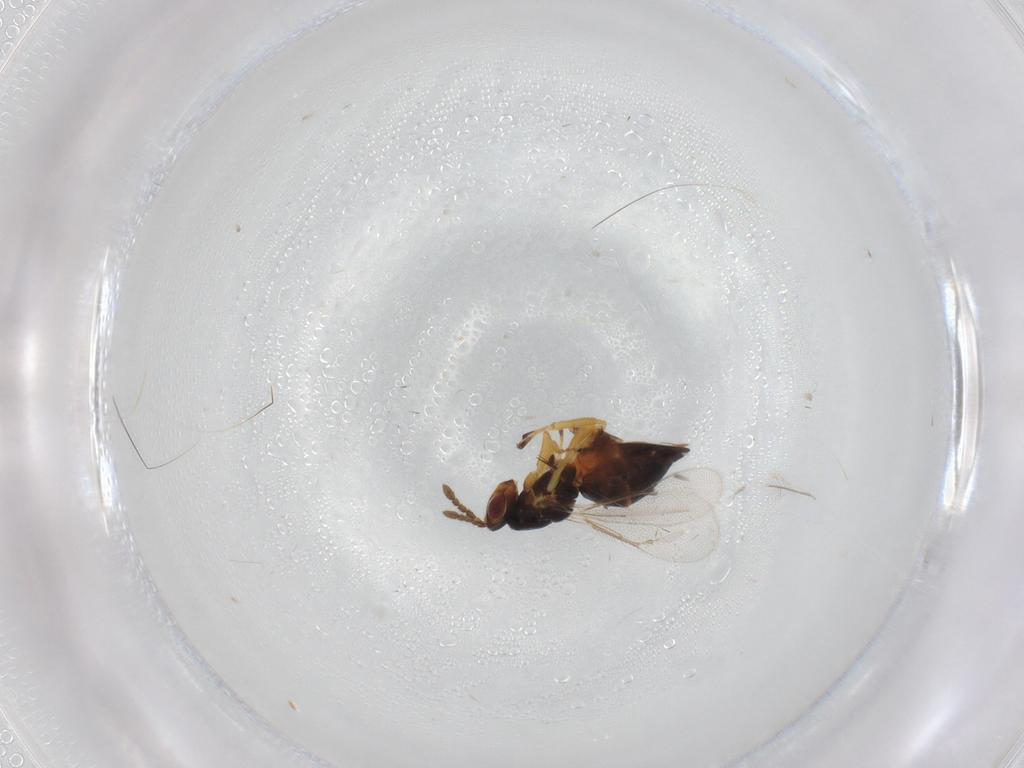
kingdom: Animalia
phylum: Arthropoda
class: Insecta
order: Hymenoptera
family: Eulophidae
